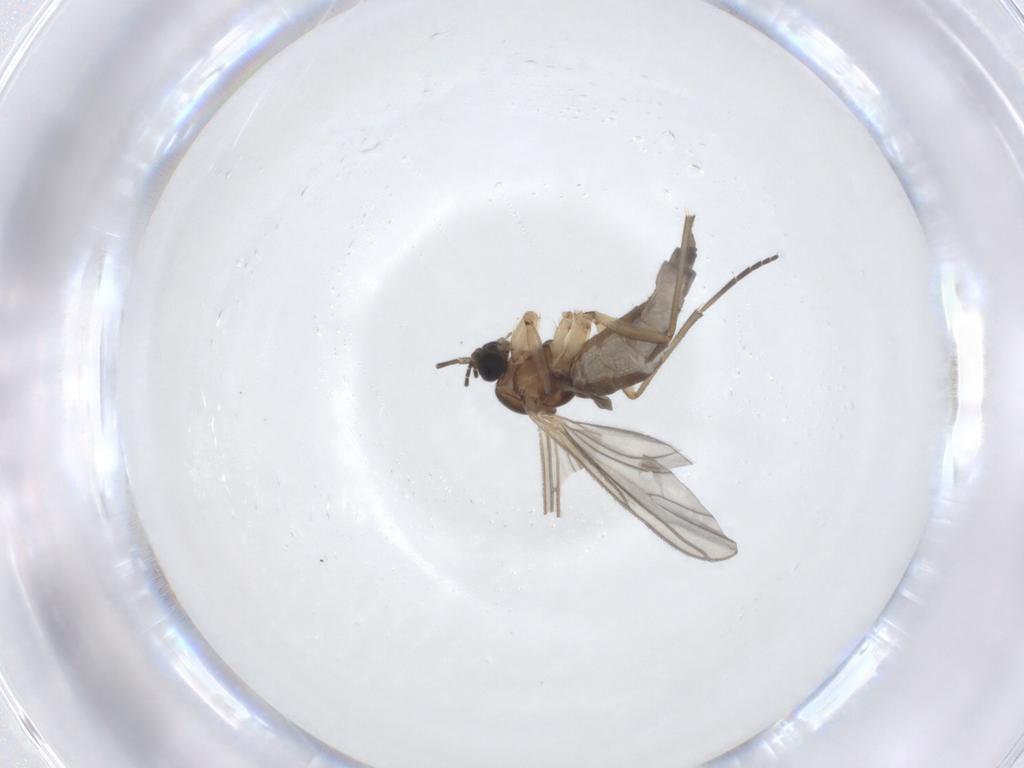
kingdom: Animalia
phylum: Arthropoda
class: Insecta
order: Diptera
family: Sciaridae
